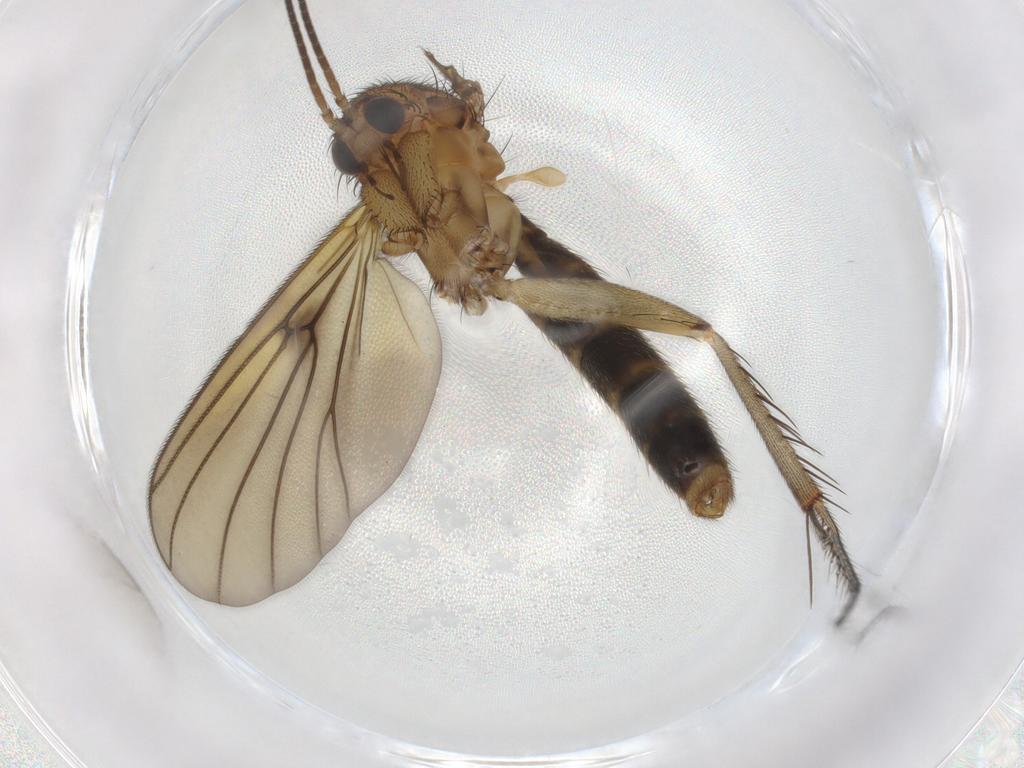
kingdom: Animalia
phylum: Arthropoda
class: Insecta
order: Diptera
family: Mycetophilidae
